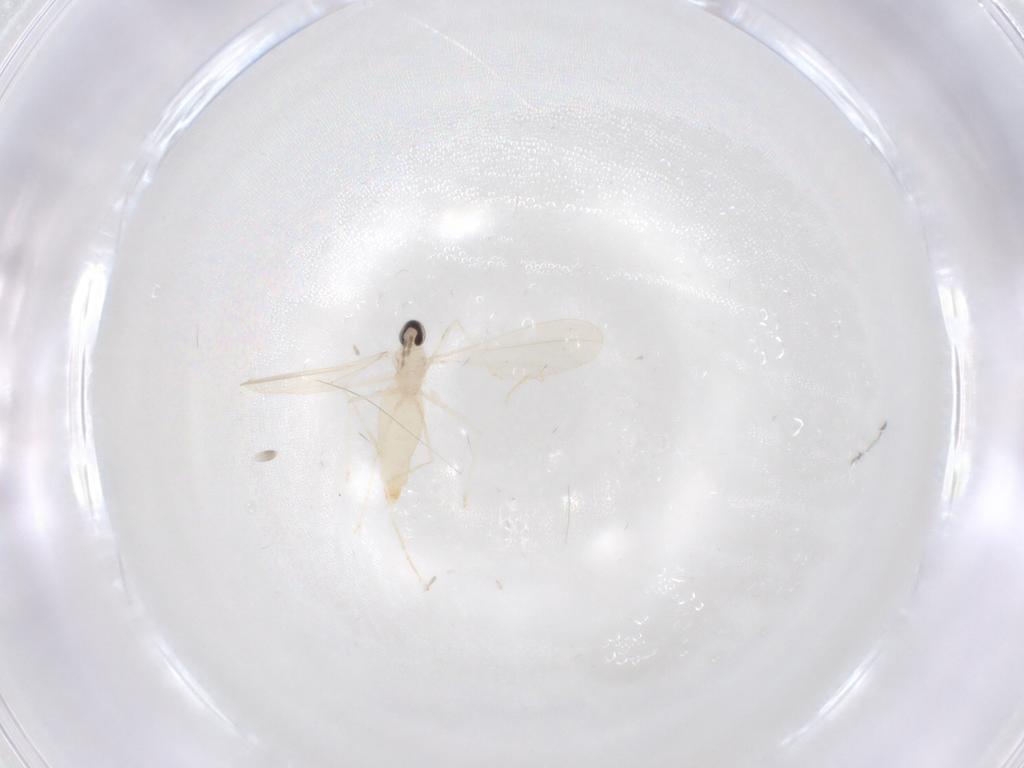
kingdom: Animalia
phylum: Arthropoda
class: Insecta
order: Diptera
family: Cecidomyiidae
